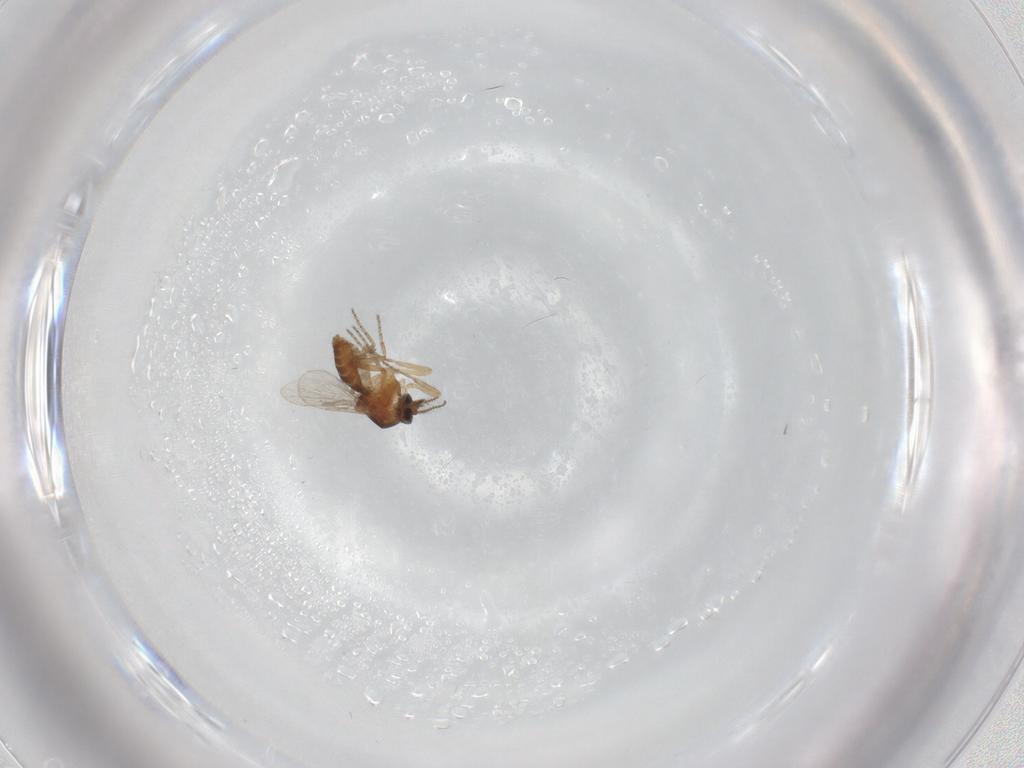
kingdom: Animalia
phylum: Arthropoda
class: Insecta
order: Diptera
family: Ceratopogonidae
